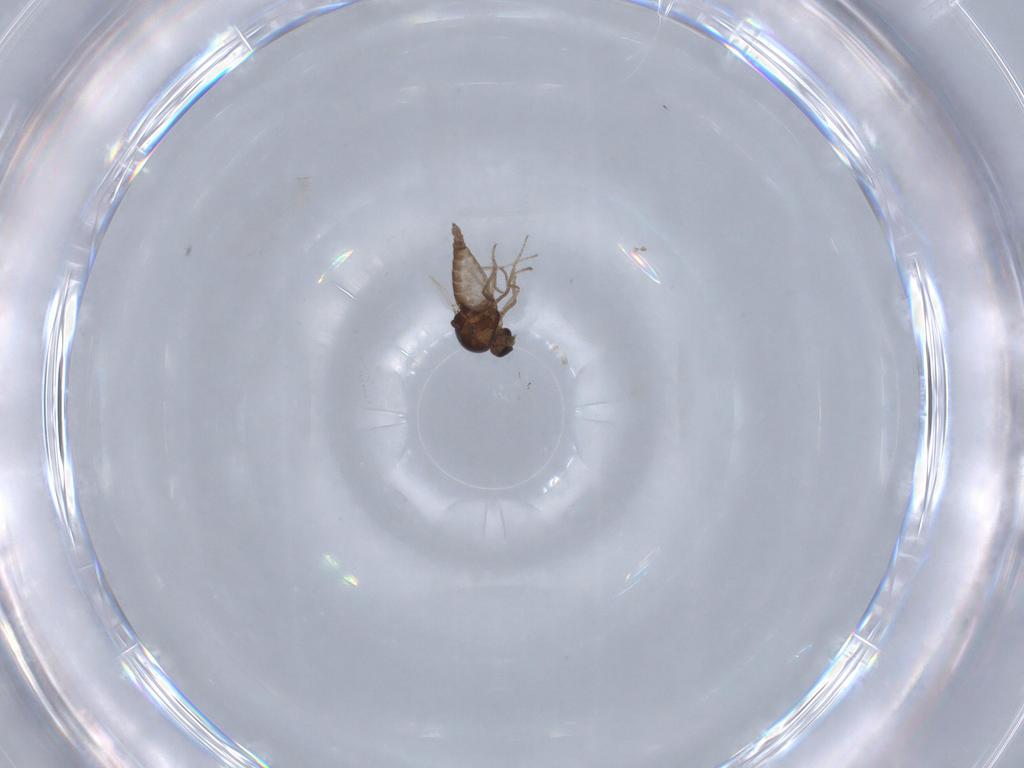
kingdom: Animalia
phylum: Arthropoda
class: Insecta
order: Diptera
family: Ceratopogonidae
